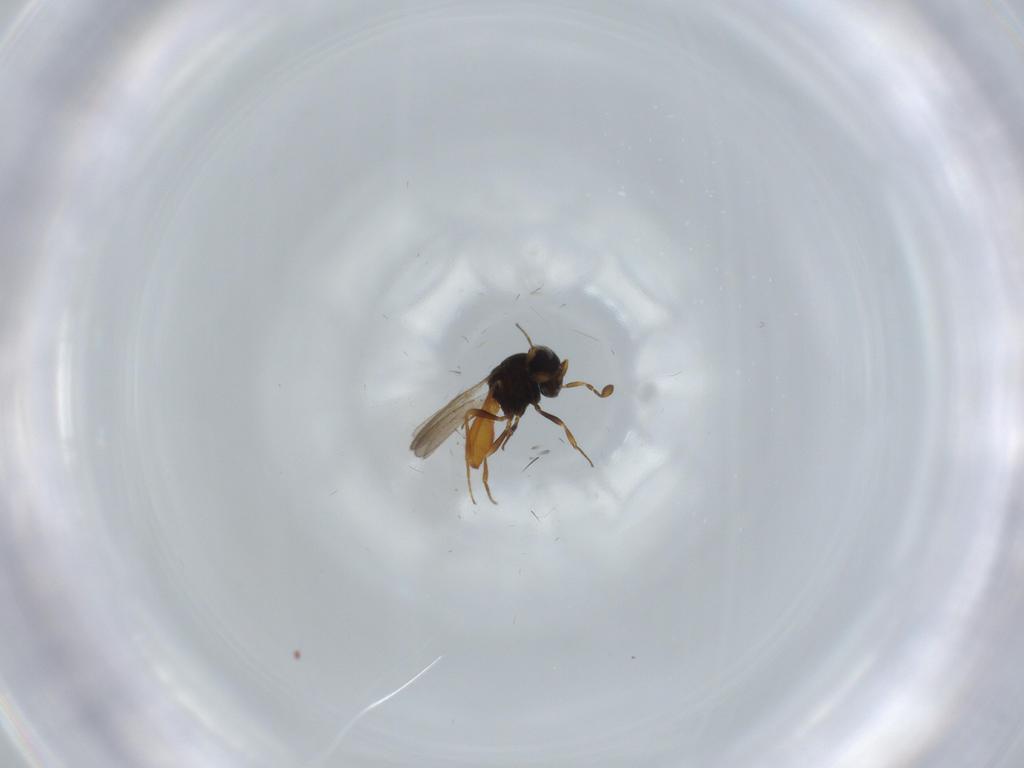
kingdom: Animalia
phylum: Arthropoda
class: Insecta
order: Hymenoptera
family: Scelionidae
